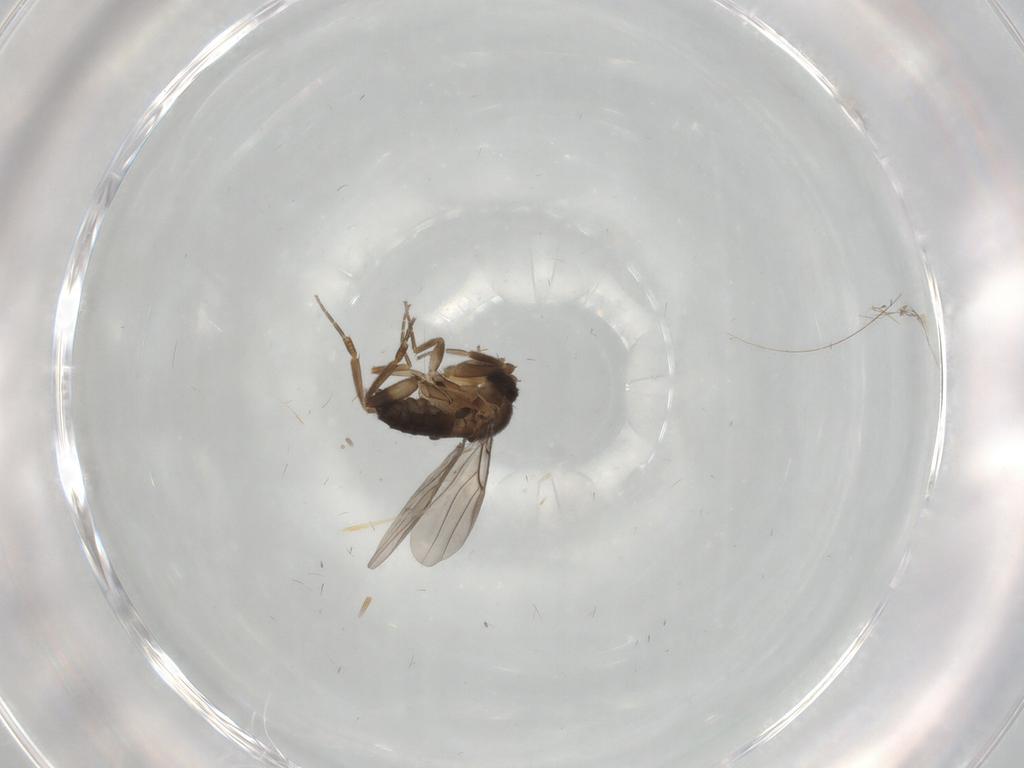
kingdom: Animalia
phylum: Arthropoda
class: Insecta
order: Diptera
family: Phoridae
